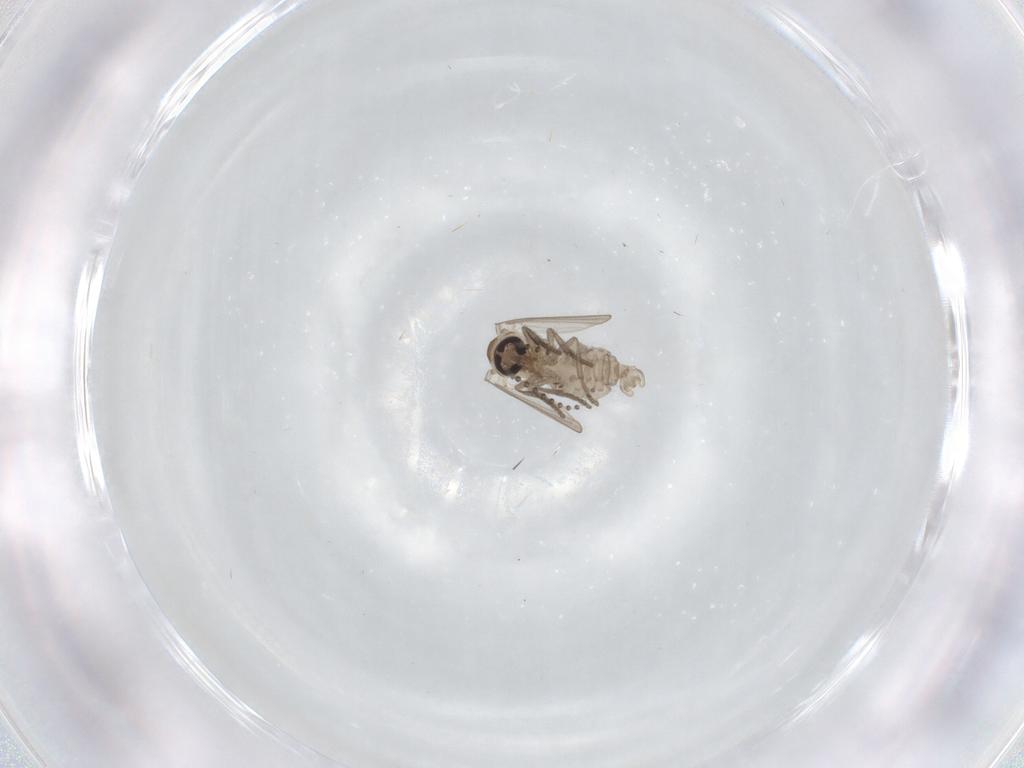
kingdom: Animalia
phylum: Arthropoda
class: Insecta
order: Diptera
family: Psychodidae
